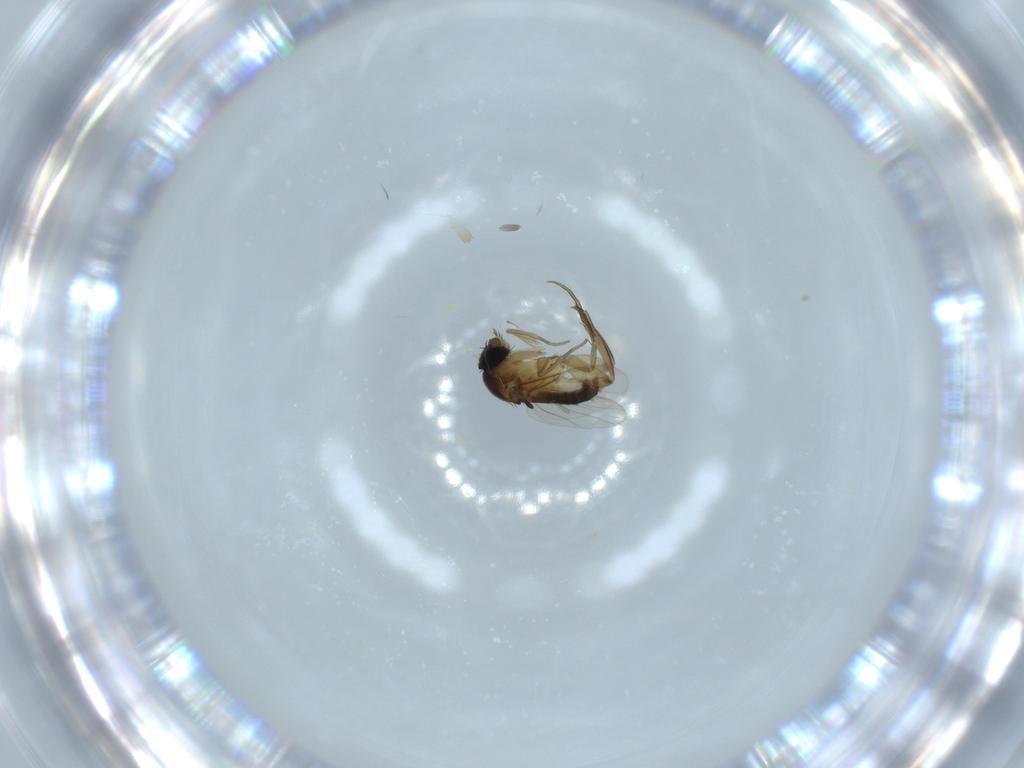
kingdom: Animalia
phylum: Arthropoda
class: Insecta
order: Diptera
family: Phoridae
